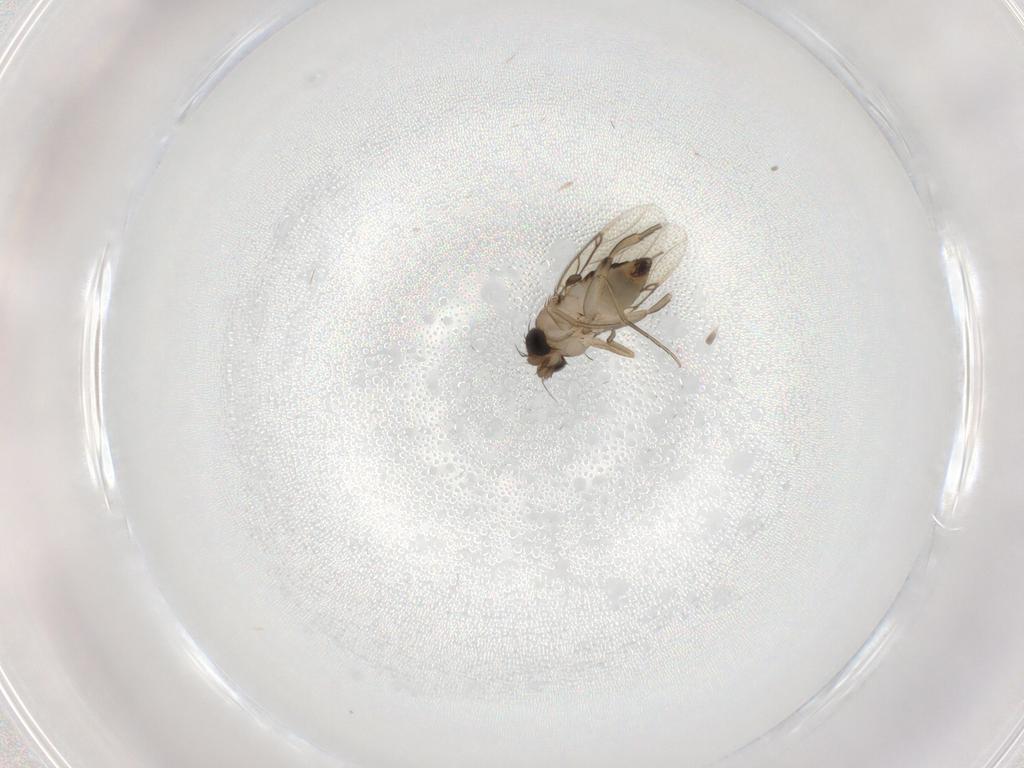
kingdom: Animalia
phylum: Arthropoda
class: Insecta
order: Diptera
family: Phoridae
